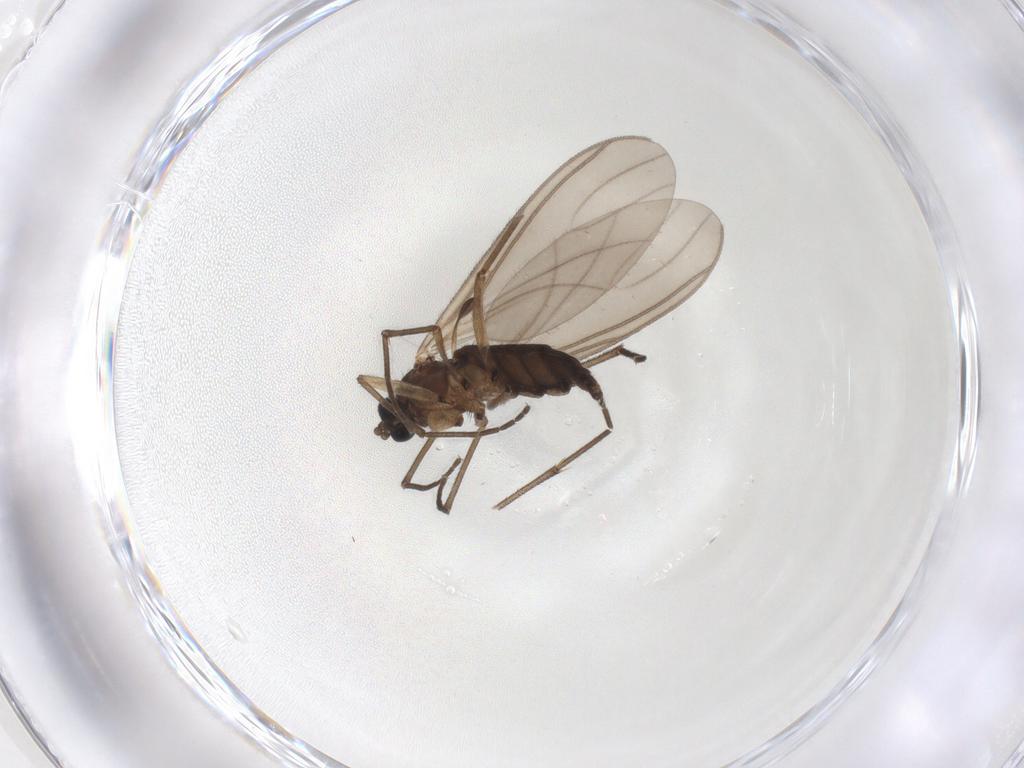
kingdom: Animalia
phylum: Arthropoda
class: Insecta
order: Diptera
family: Sciaridae
